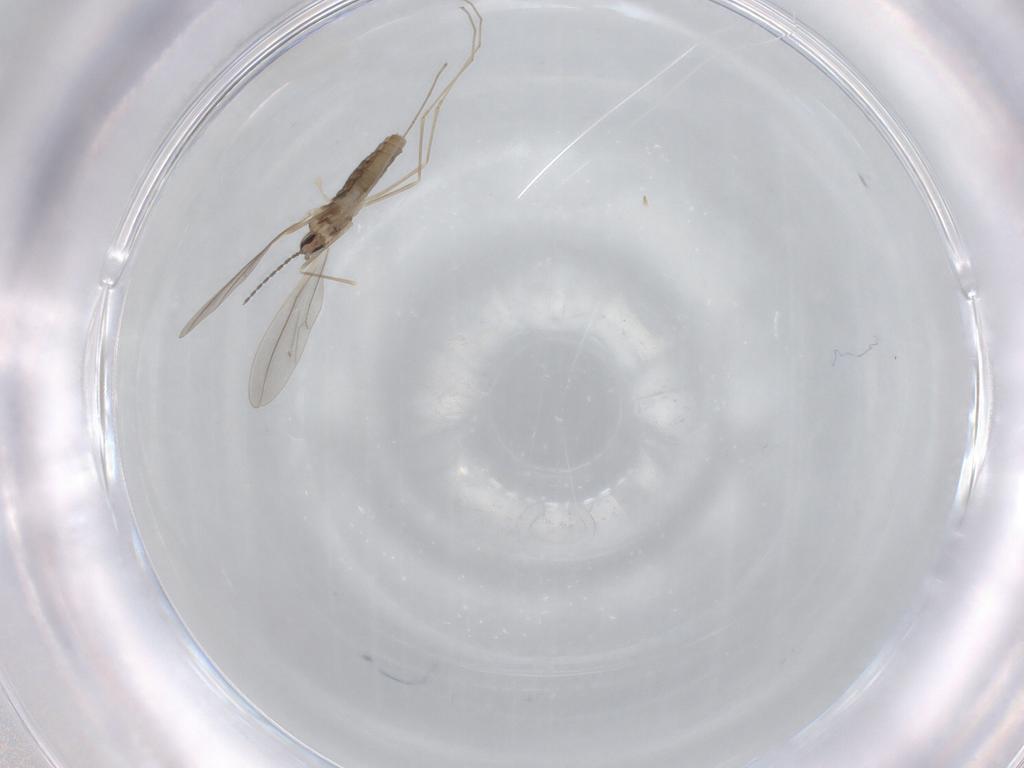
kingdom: Animalia
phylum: Arthropoda
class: Insecta
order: Diptera
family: Cecidomyiidae
